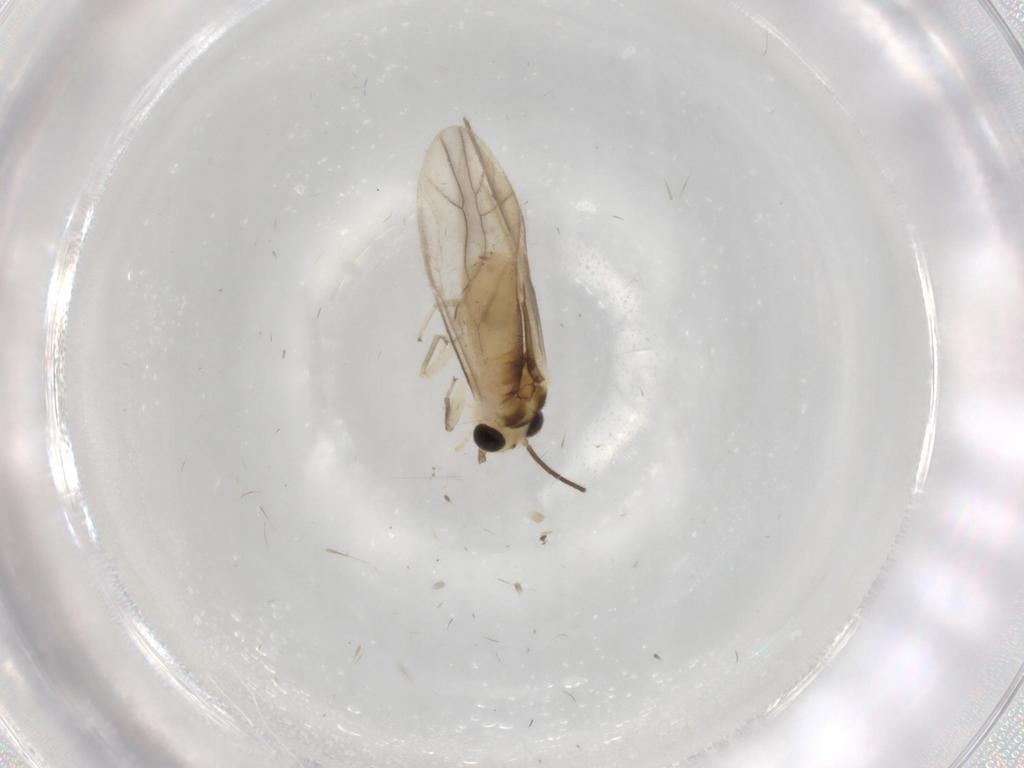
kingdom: Animalia
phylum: Arthropoda
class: Insecta
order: Psocodea
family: Caeciliusidae
